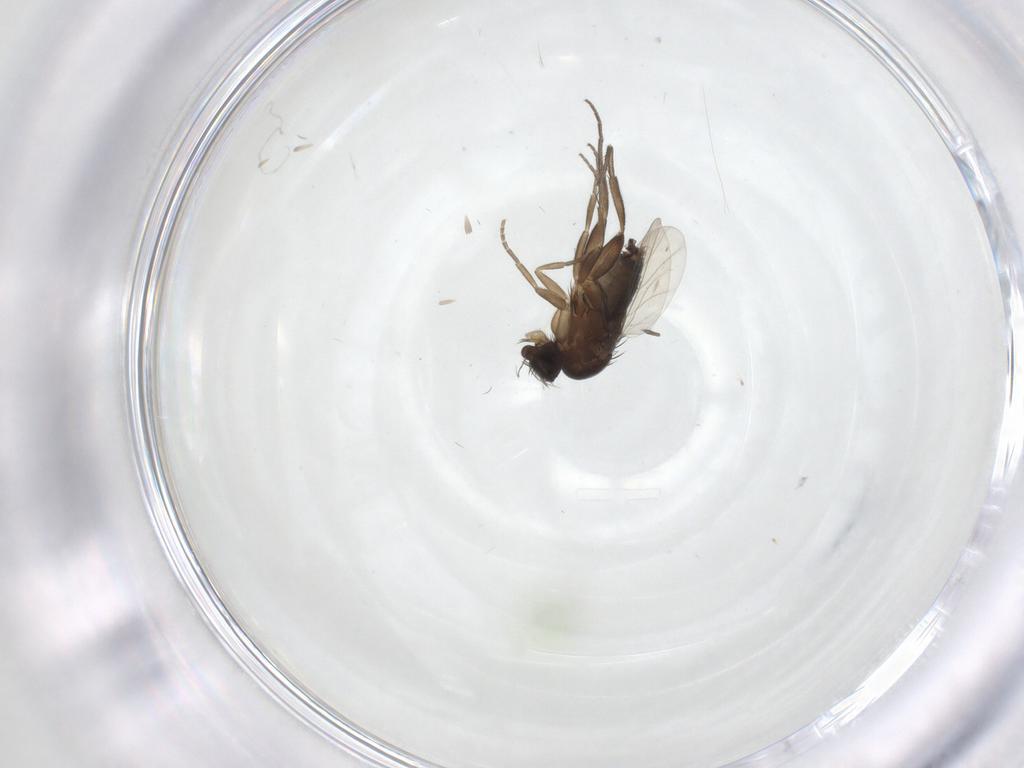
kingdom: Animalia
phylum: Arthropoda
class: Insecta
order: Diptera
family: Phoridae
